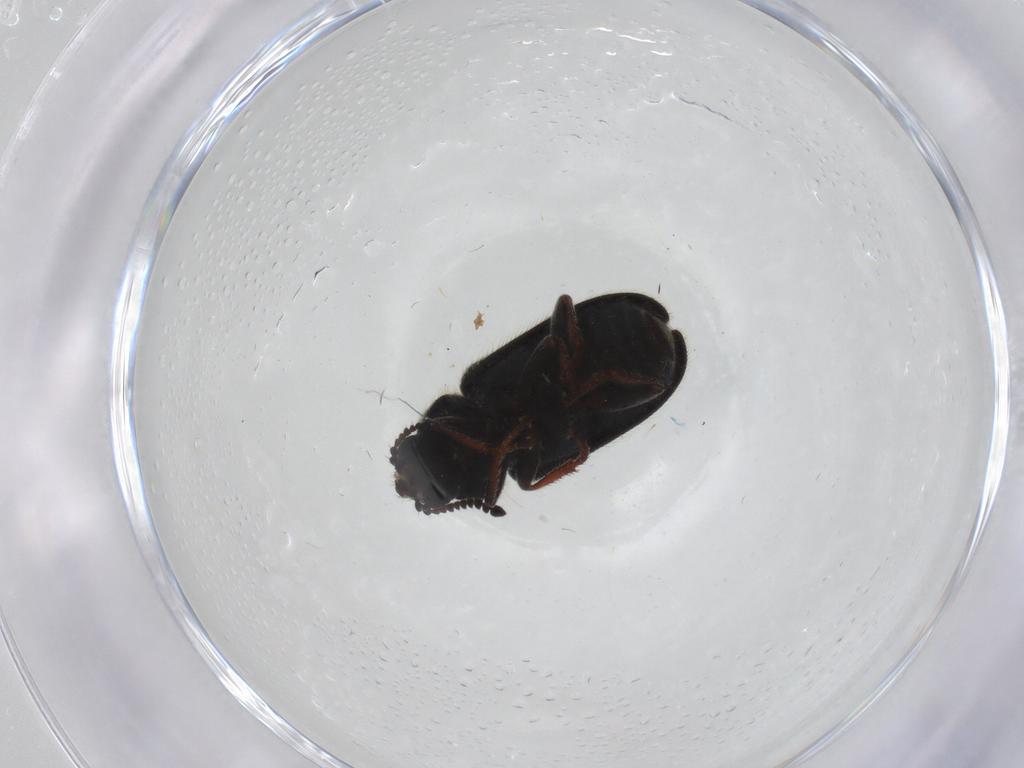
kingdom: Animalia
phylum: Arthropoda
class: Insecta
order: Coleoptera
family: Melyridae
